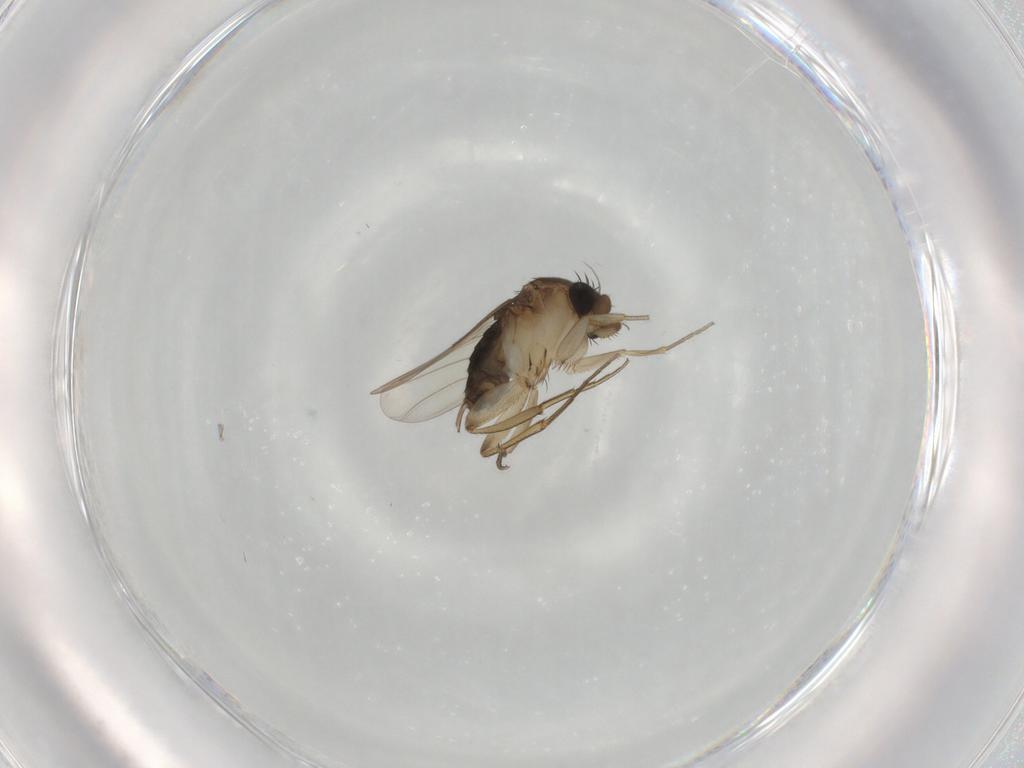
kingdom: Animalia
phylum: Arthropoda
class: Insecta
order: Diptera
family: Phoridae
